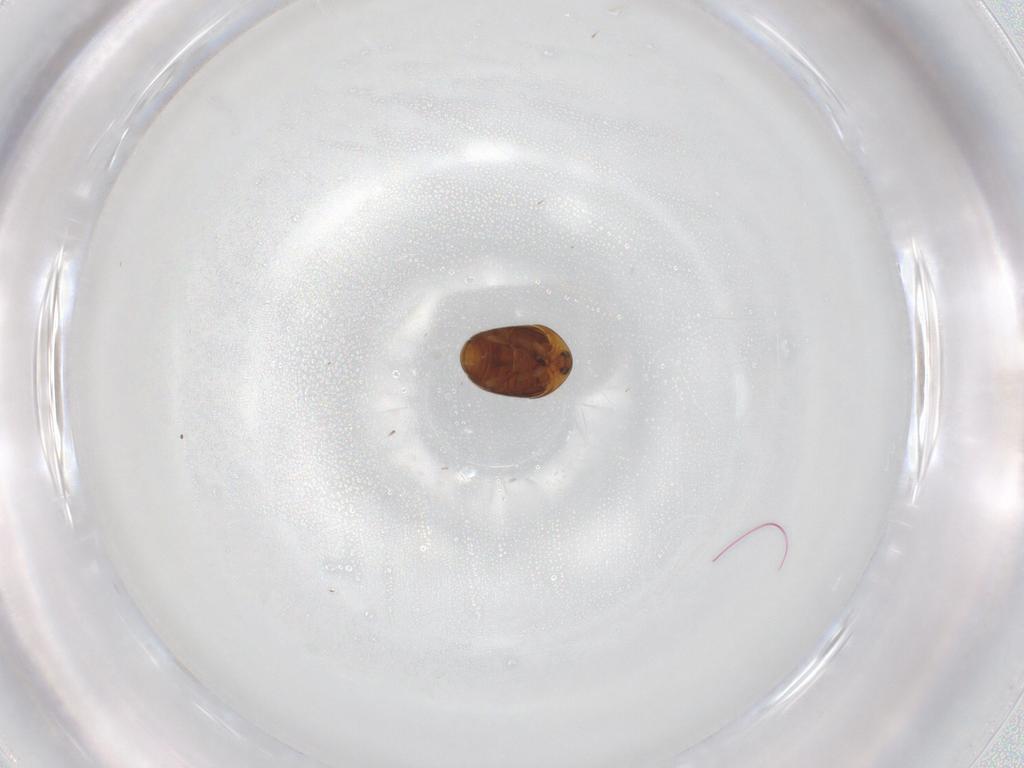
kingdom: Animalia
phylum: Arthropoda
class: Insecta
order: Coleoptera
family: Corylophidae
